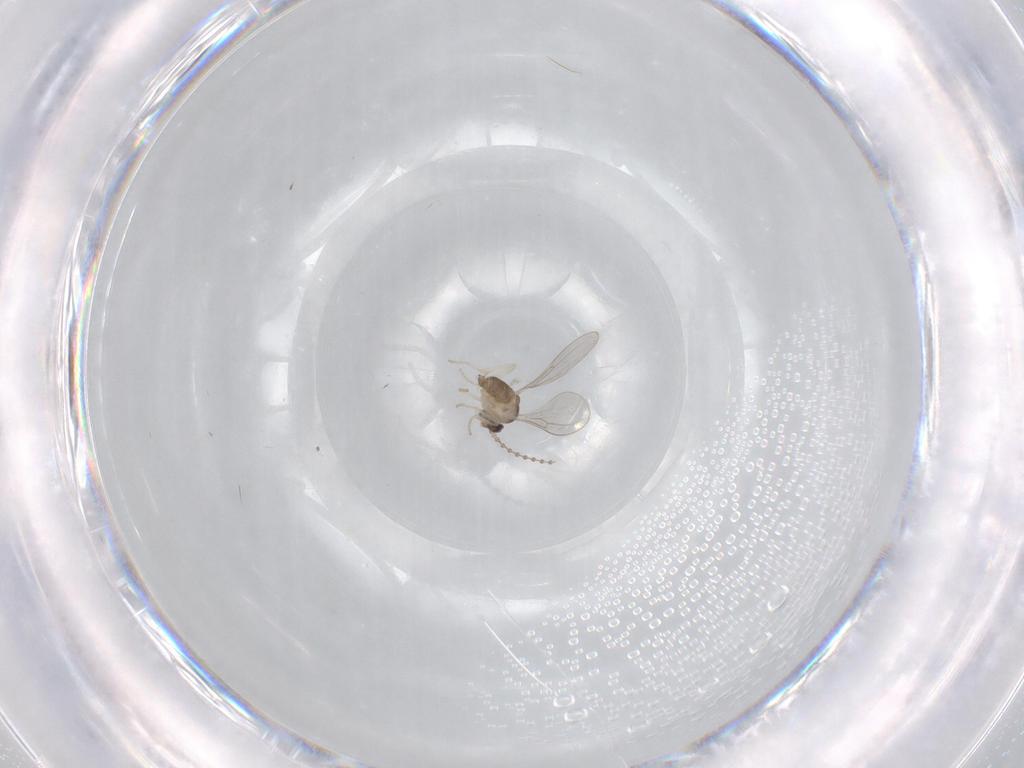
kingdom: Animalia
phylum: Arthropoda
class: Insecta
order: Diptera
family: Cecidomyiidae
